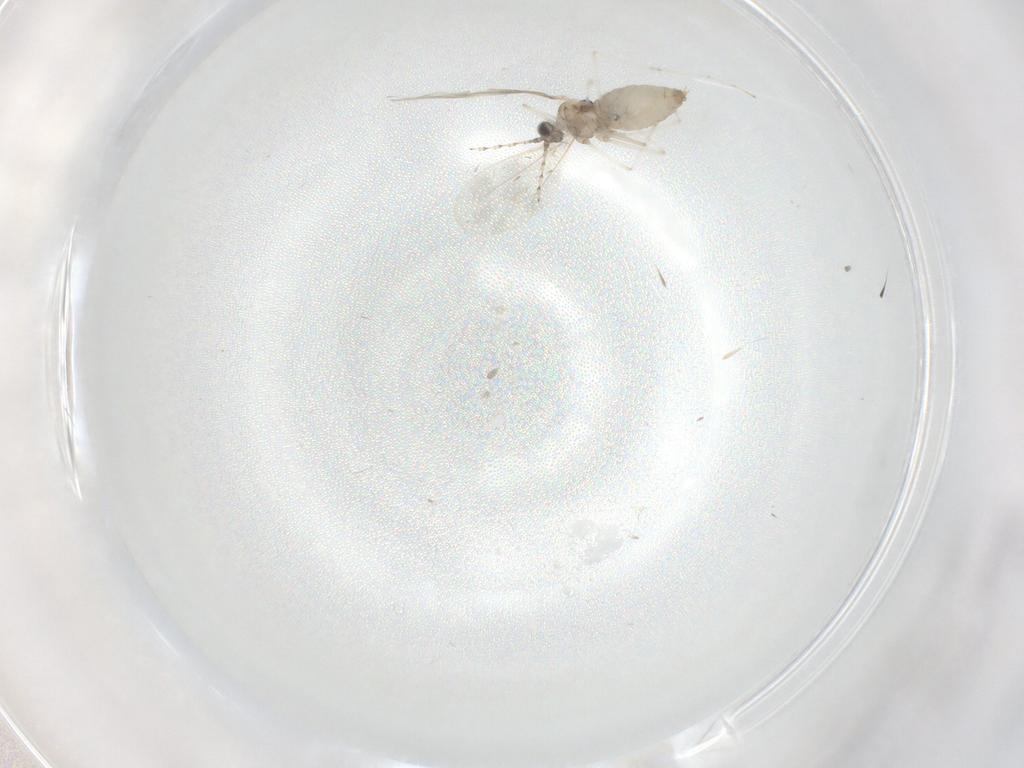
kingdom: Animalia
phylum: Arthropoda
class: Insecta
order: Diptera
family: Cecidomyiidae
